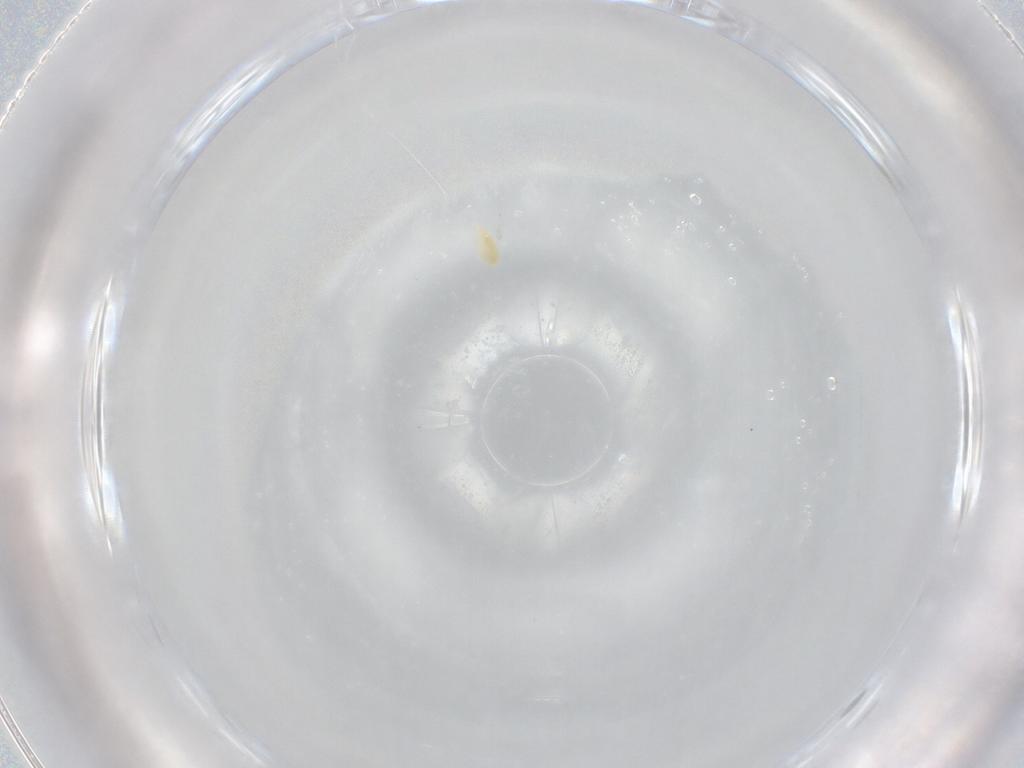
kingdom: Animalia
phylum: Arthropoda
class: Arachnida
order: Trombidiformes
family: Eupodidae
